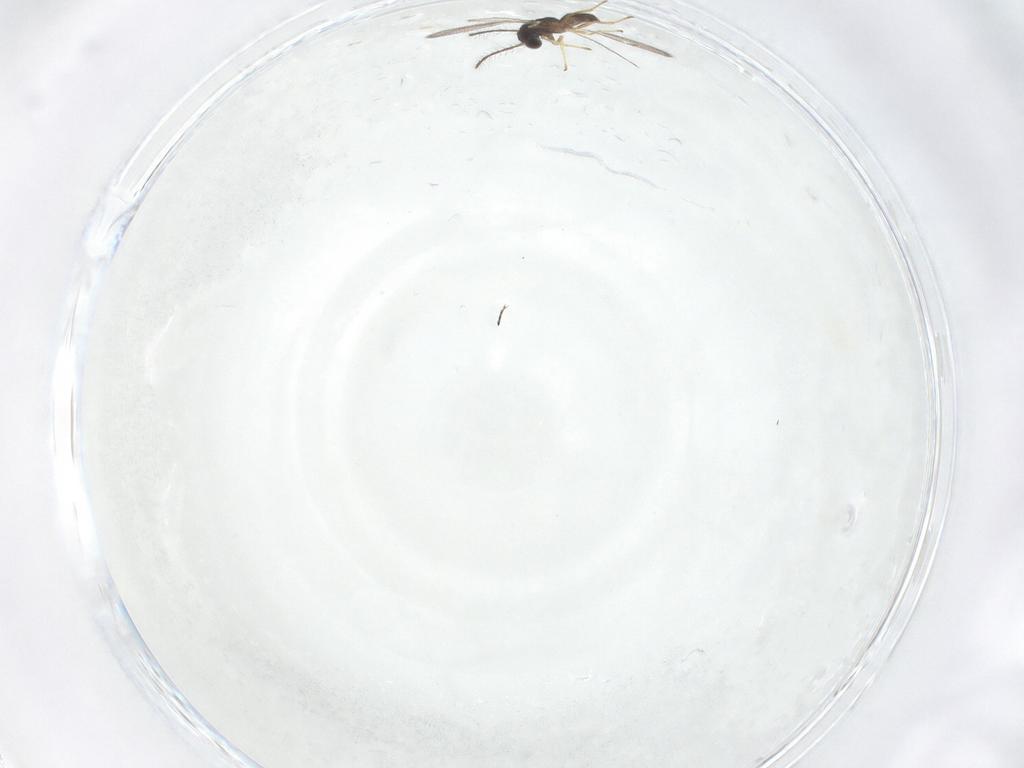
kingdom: Animalia
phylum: Arthropoda
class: Insecta
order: Hymenoptera
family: Eulophidae
